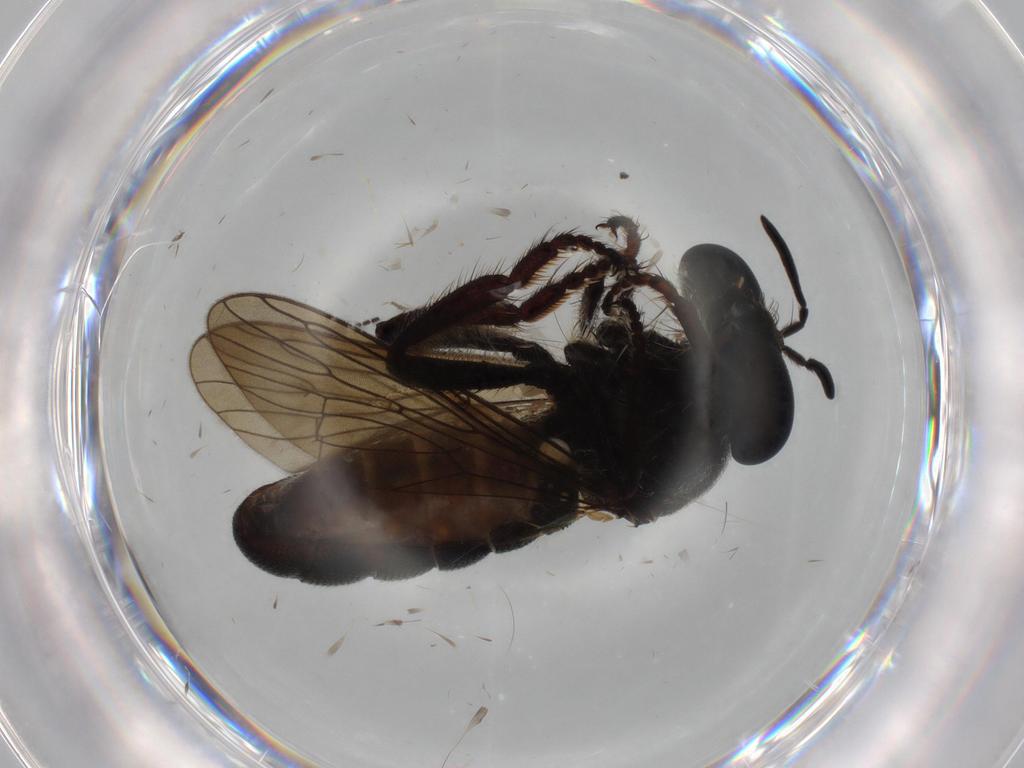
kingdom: Animalia
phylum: Arthropoda
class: Insecta
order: Diptera
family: Cecidomyiidae
